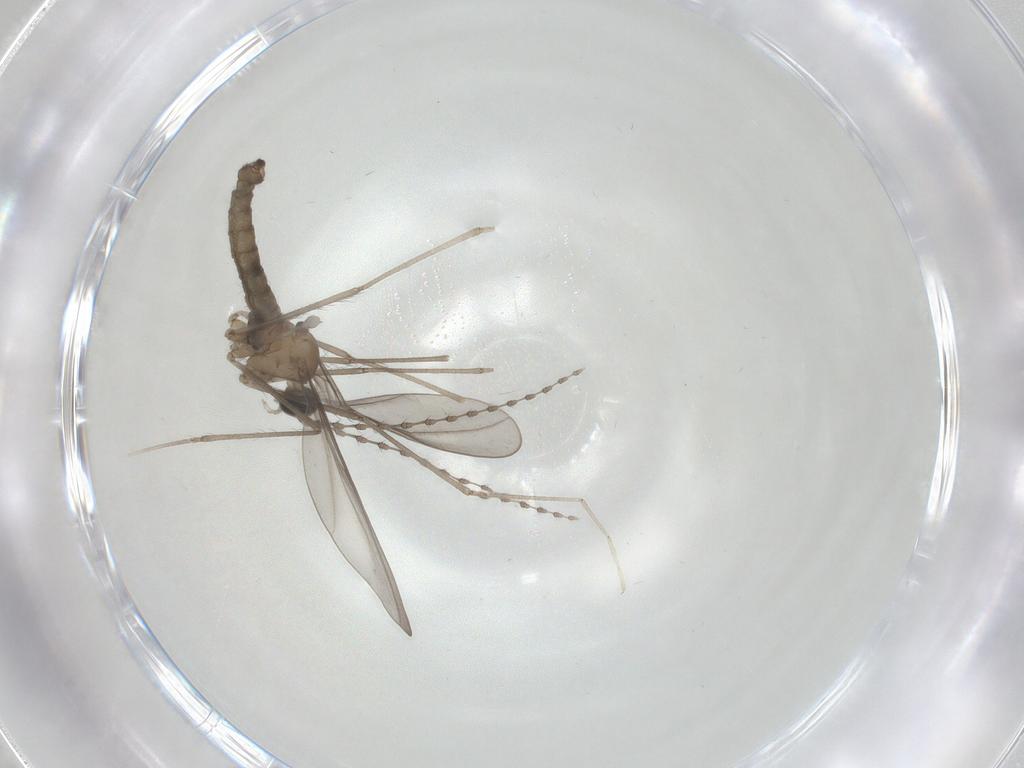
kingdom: Animalia
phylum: Arthropoda
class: Insecta
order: Diptera
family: Cecidomyiidae
